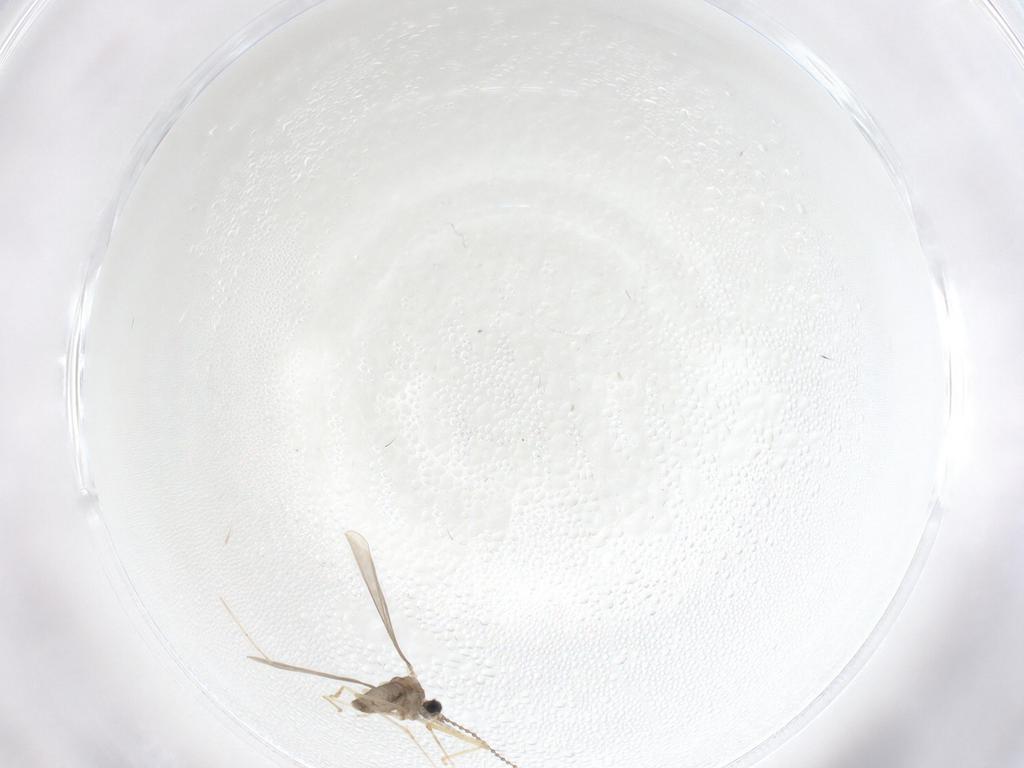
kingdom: Animalia
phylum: Arthropoda
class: Insecta
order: Diptera
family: Cecidomyiidae
